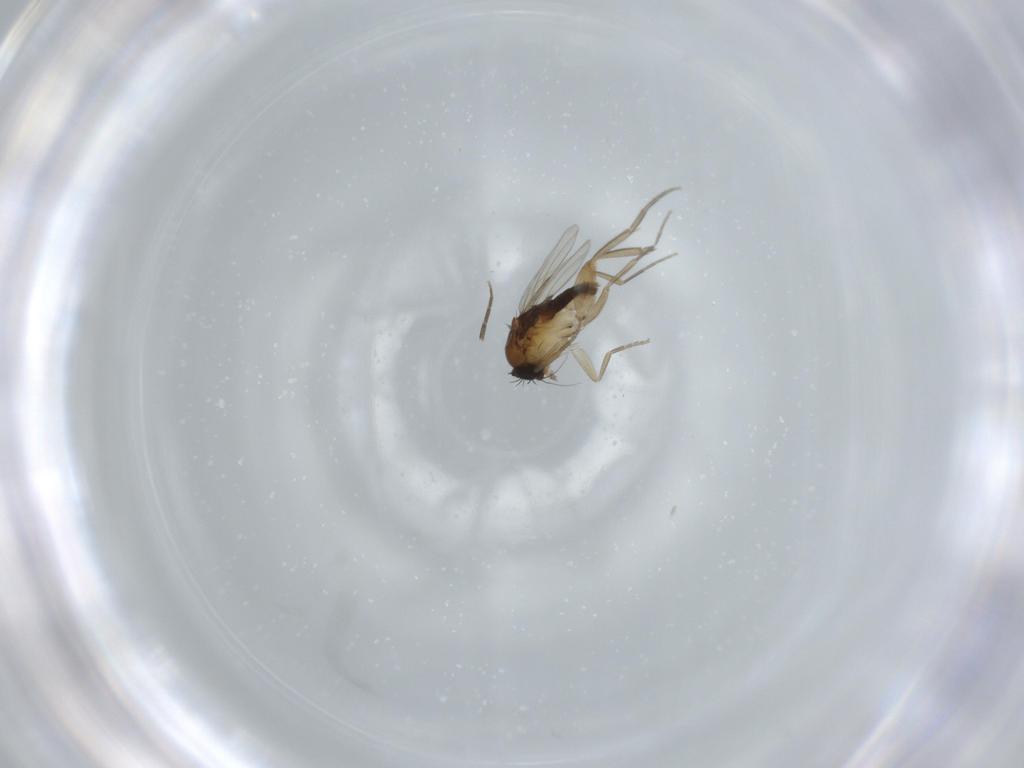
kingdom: Animalia
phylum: Arthropoda
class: Insecta
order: Diptera
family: Phoridae
